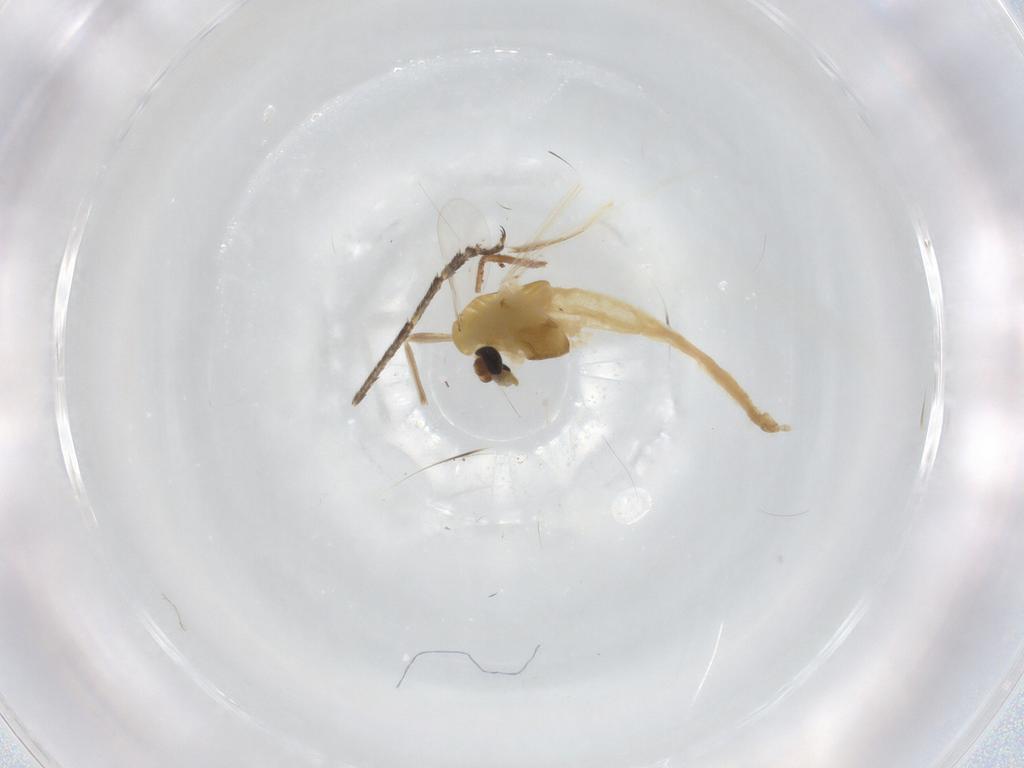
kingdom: Animalia
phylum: Arthropoda
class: Insecta
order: Diptera
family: Chironomidae
